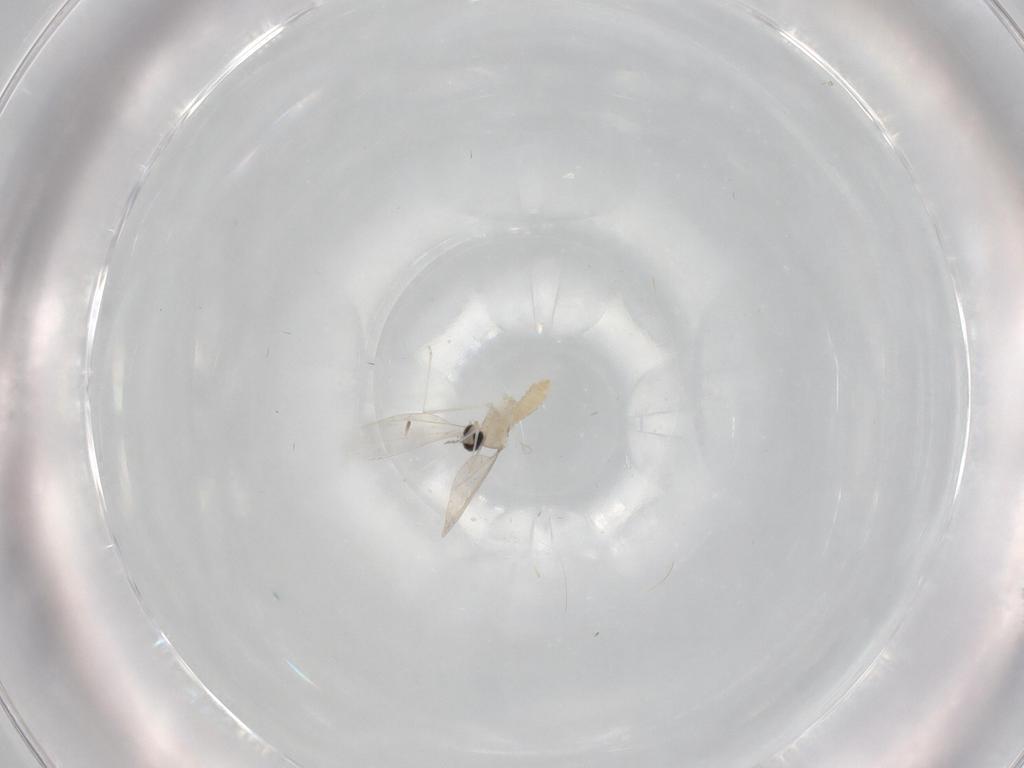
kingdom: Animalia
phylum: Arthropoda
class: Insecta
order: Diptera
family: Cecidomyiidae
